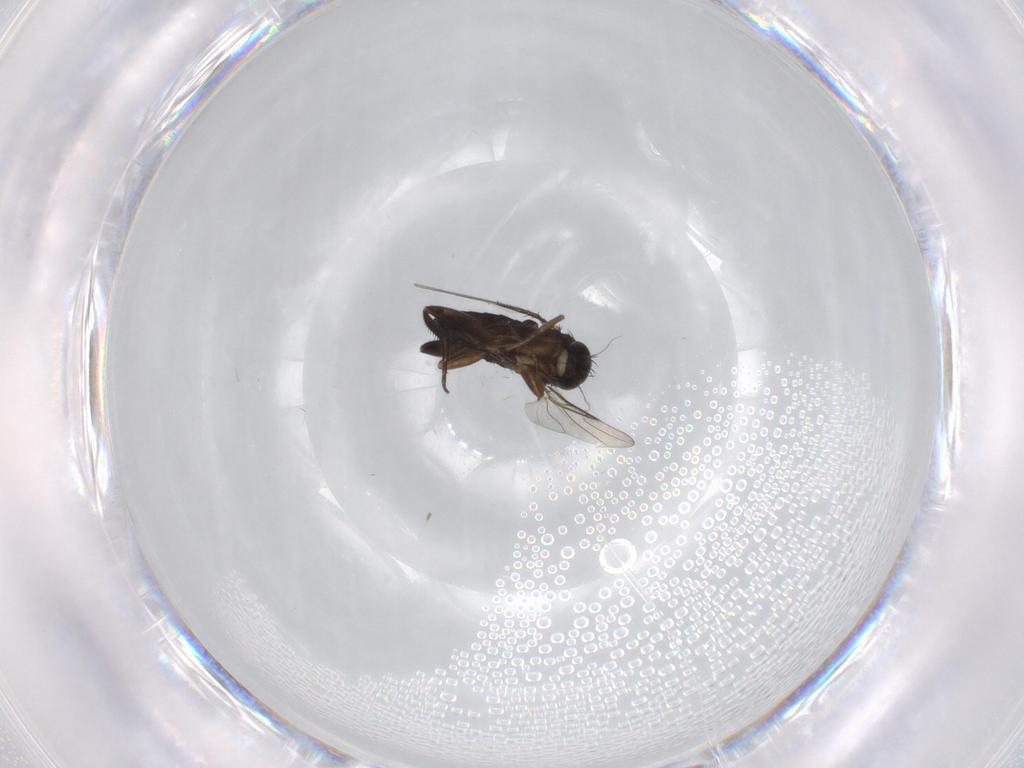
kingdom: Animalia
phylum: Arthropoda
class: Insecta
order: Diptera
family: Phoridae
